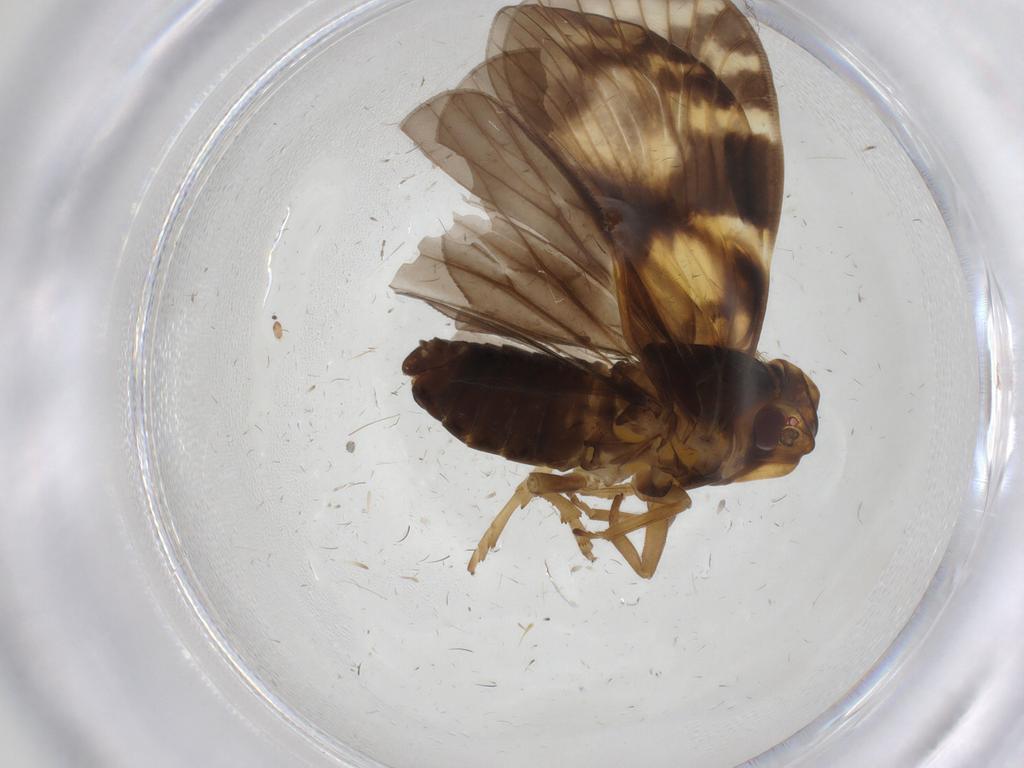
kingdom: Animalia
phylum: Arthropoda
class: Insecta
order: Hemiptera
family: Cixiidae
